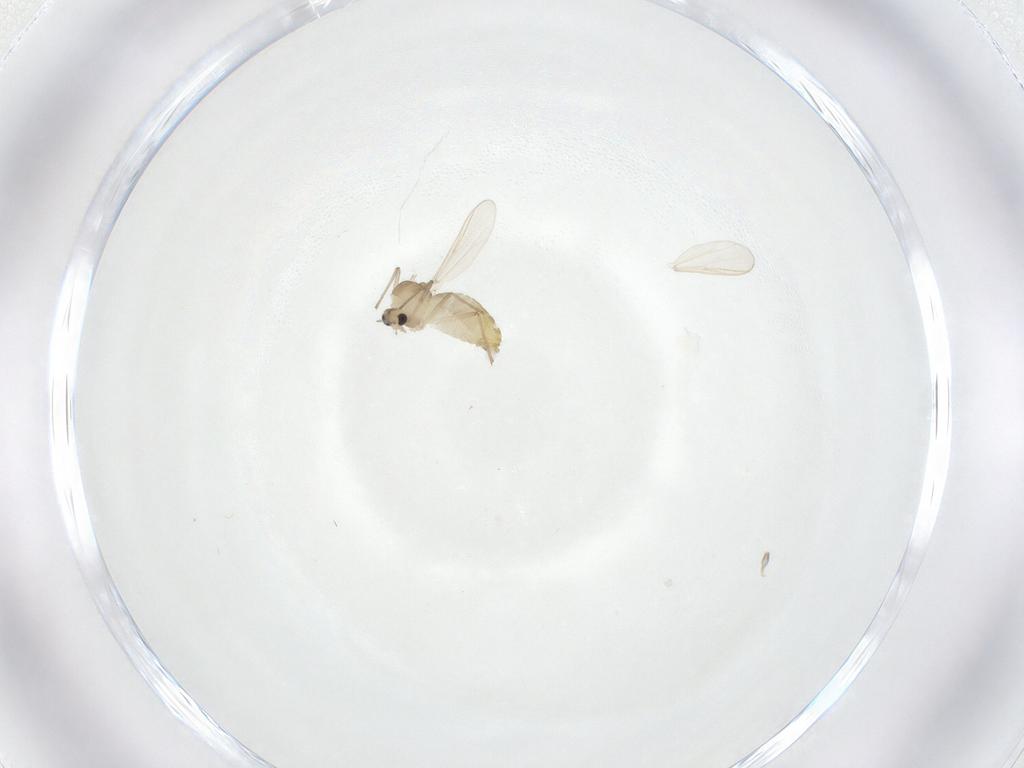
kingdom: Animalia
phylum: Arthropoda
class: Insecta
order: Diptera
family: Chironomidae
